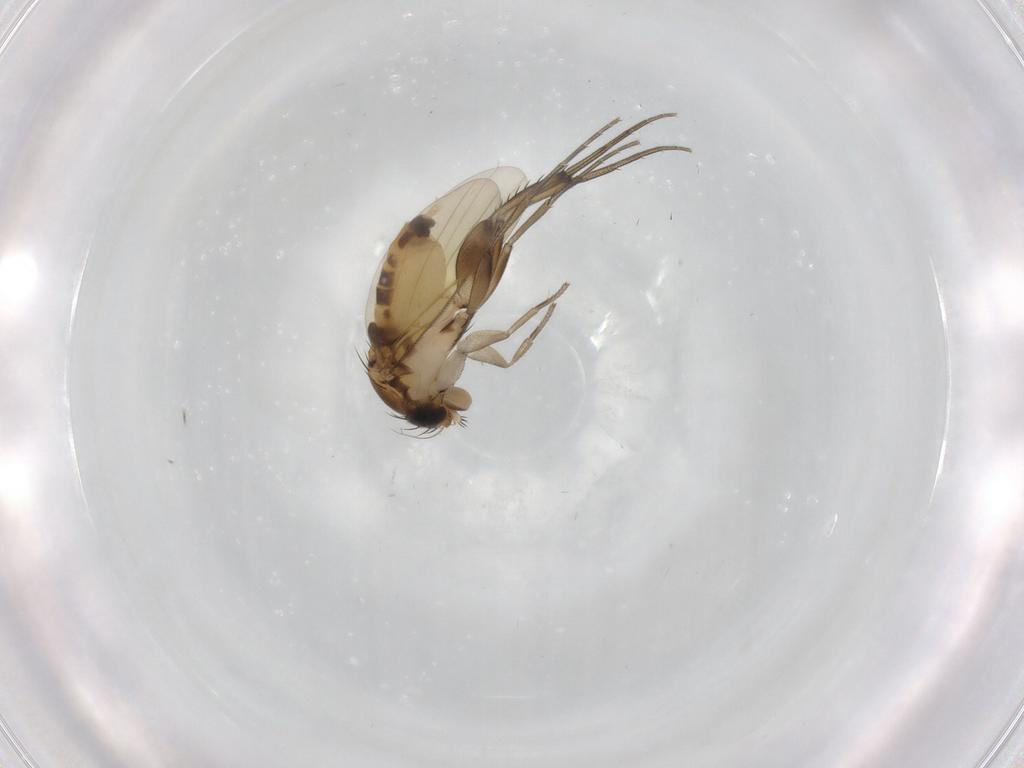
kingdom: Animalia
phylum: Arthropoda
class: Insecta
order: Diptera
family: Phoridae
